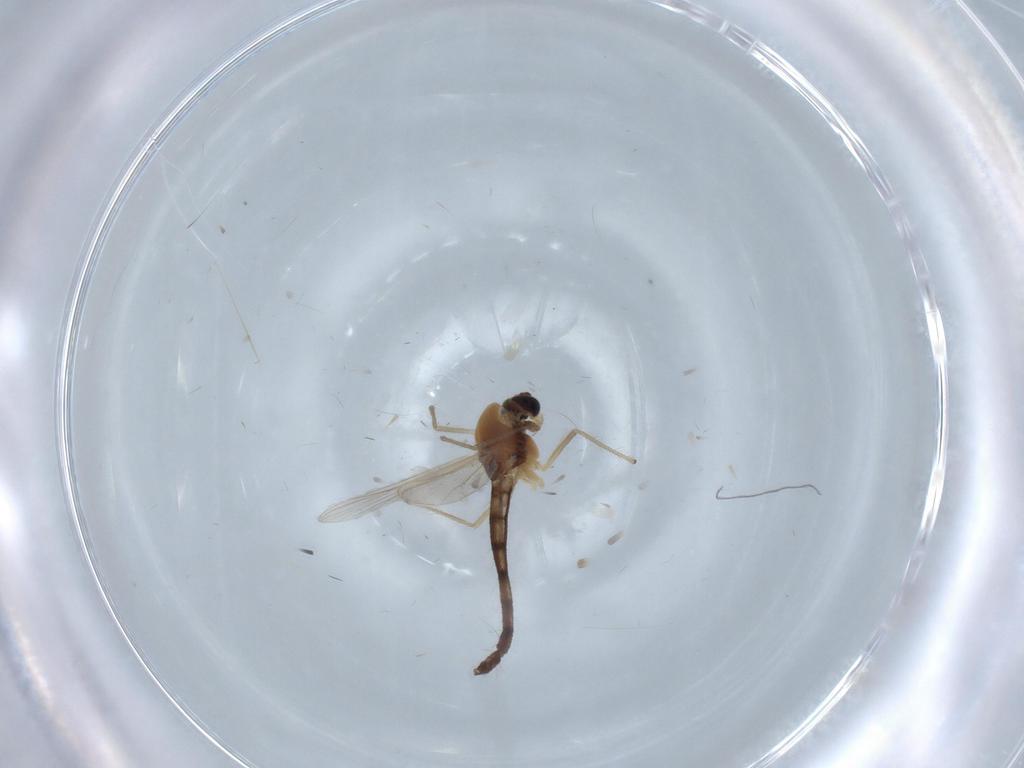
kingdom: Animalia
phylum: Arthropoda
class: Insecta
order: Diptera
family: Chironomidae
